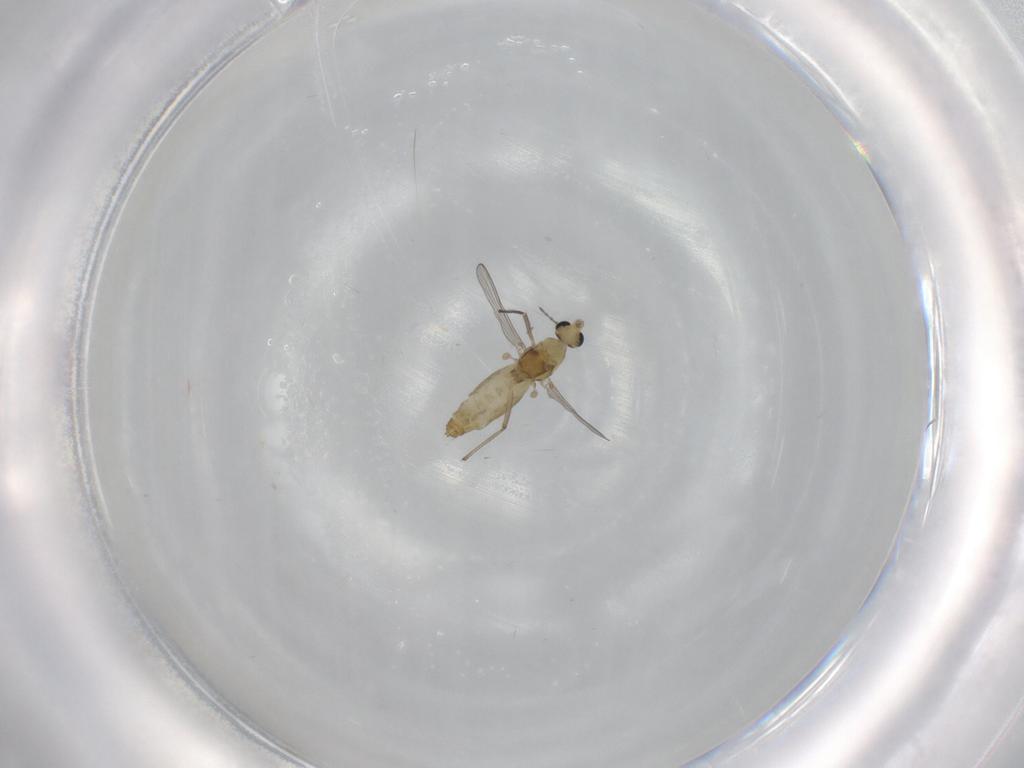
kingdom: Animalia
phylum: Arthropoda
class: Insecta
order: Diptera
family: Chironomidae
